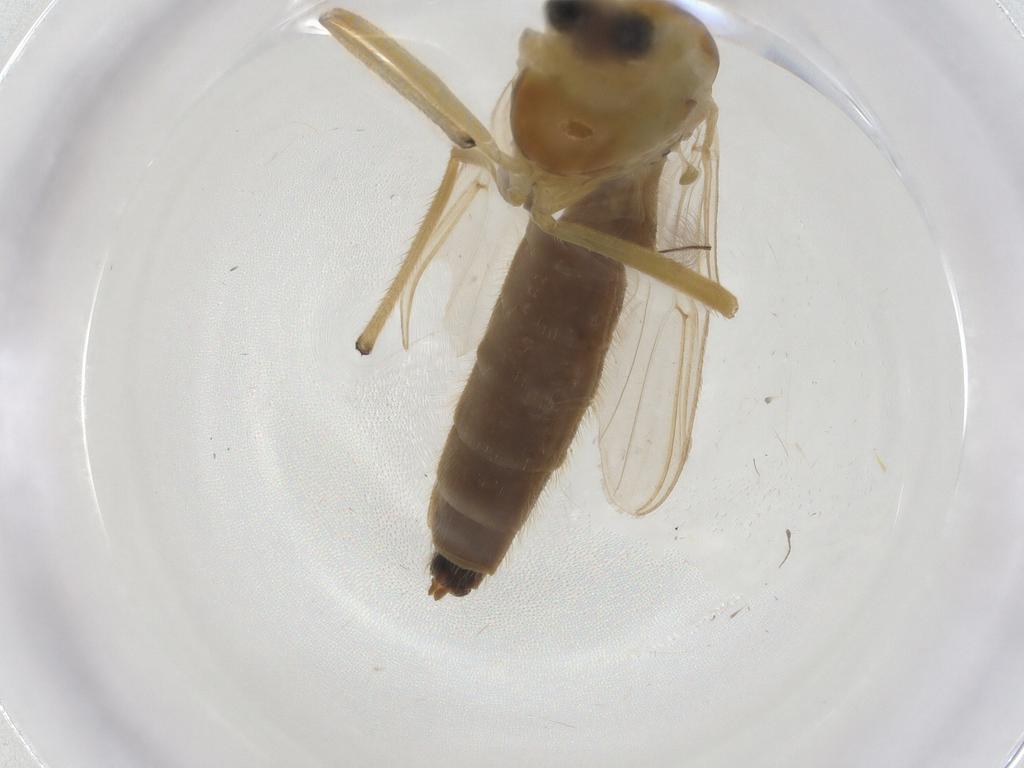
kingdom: Animalia
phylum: Arthropoda
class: Insecta
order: Diptera
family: Chironomidae
